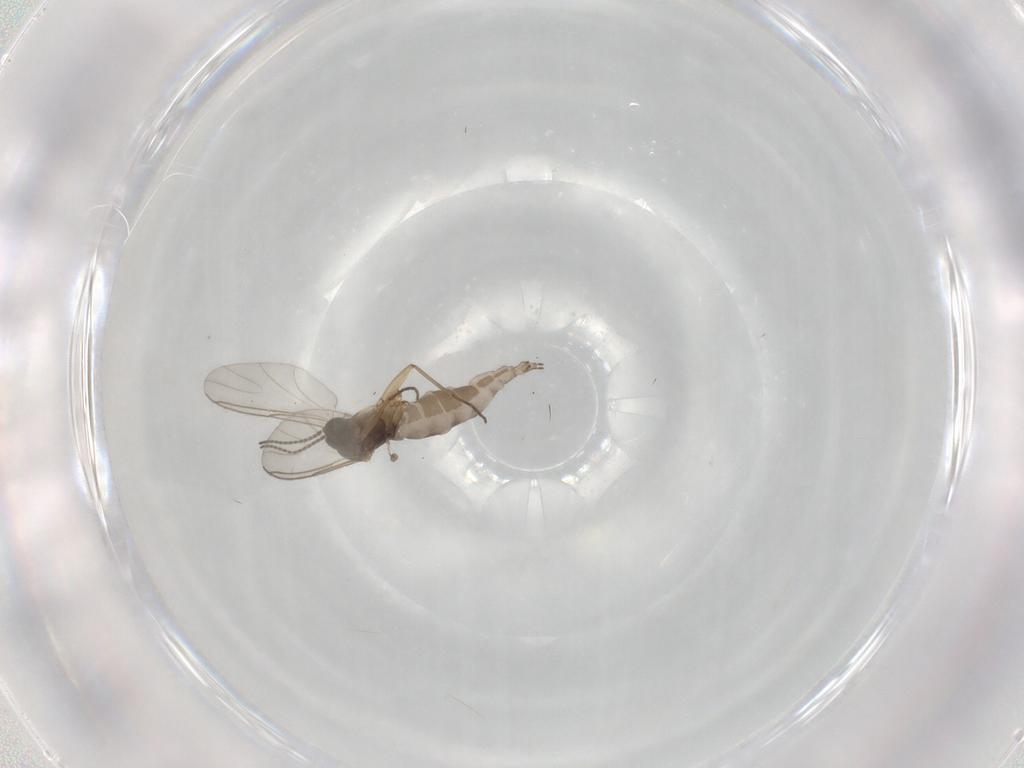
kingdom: Animalia
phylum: Arthropoda
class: Insecta
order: Diptera
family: Sciaridae
